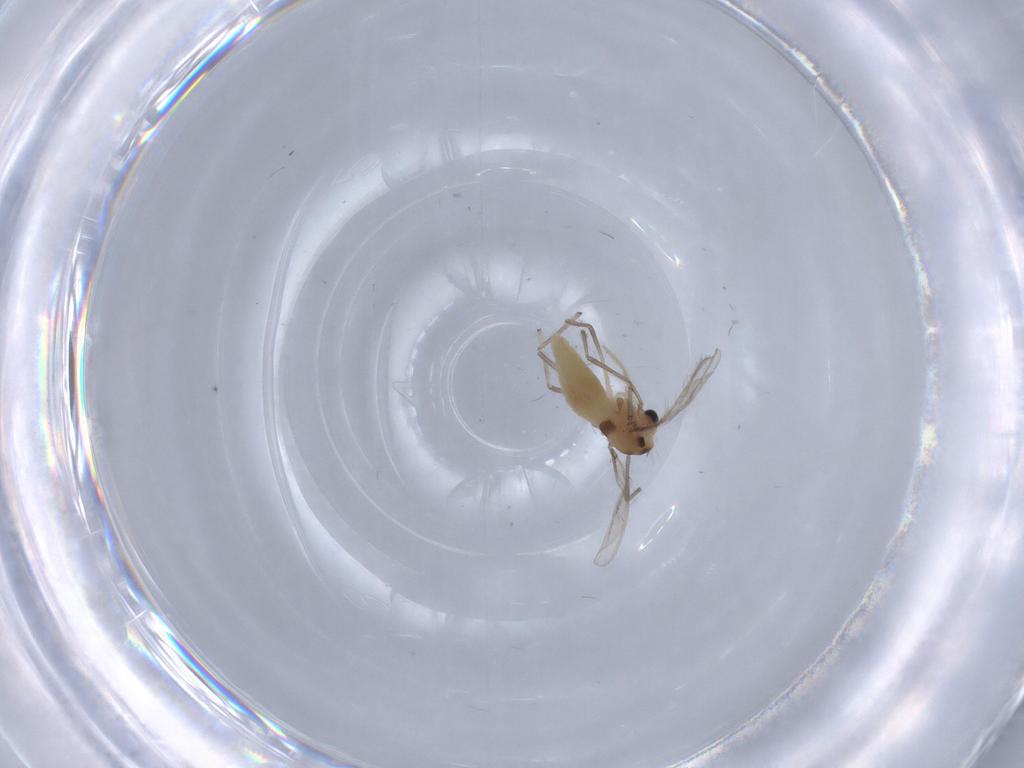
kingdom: Animalia
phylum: Arthropoda
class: Insecta
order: Diptera
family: Chironomidae
